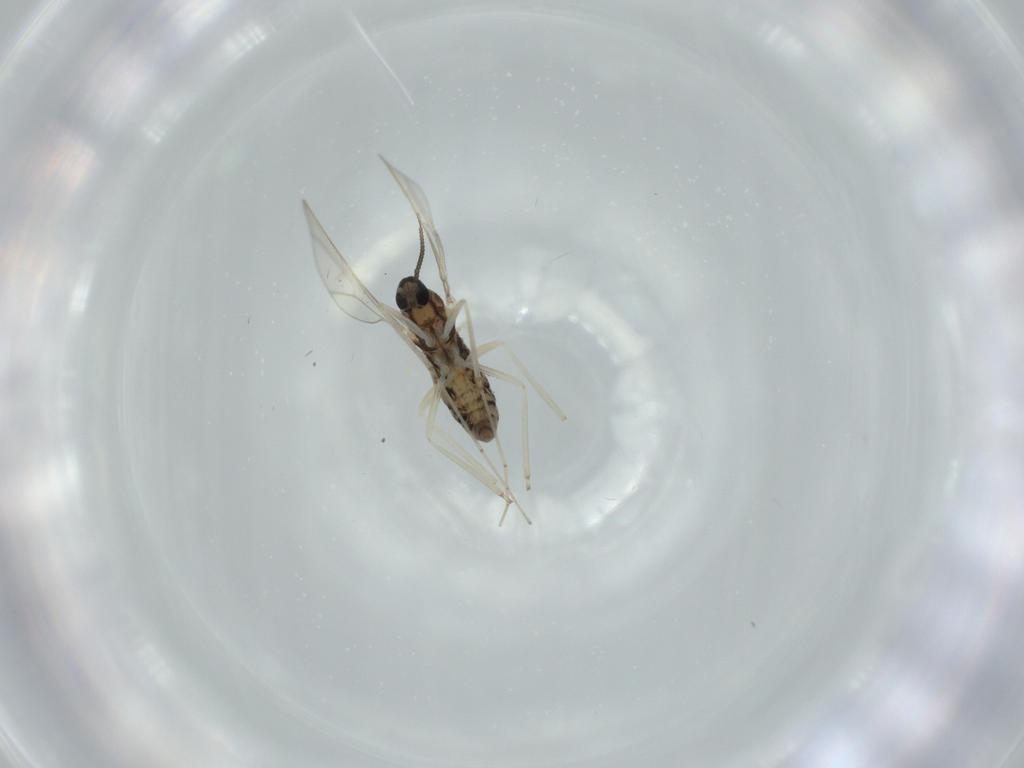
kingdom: Animalia
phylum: Arthropoda
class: Insecta
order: Diptera
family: Cecidomyiidae
